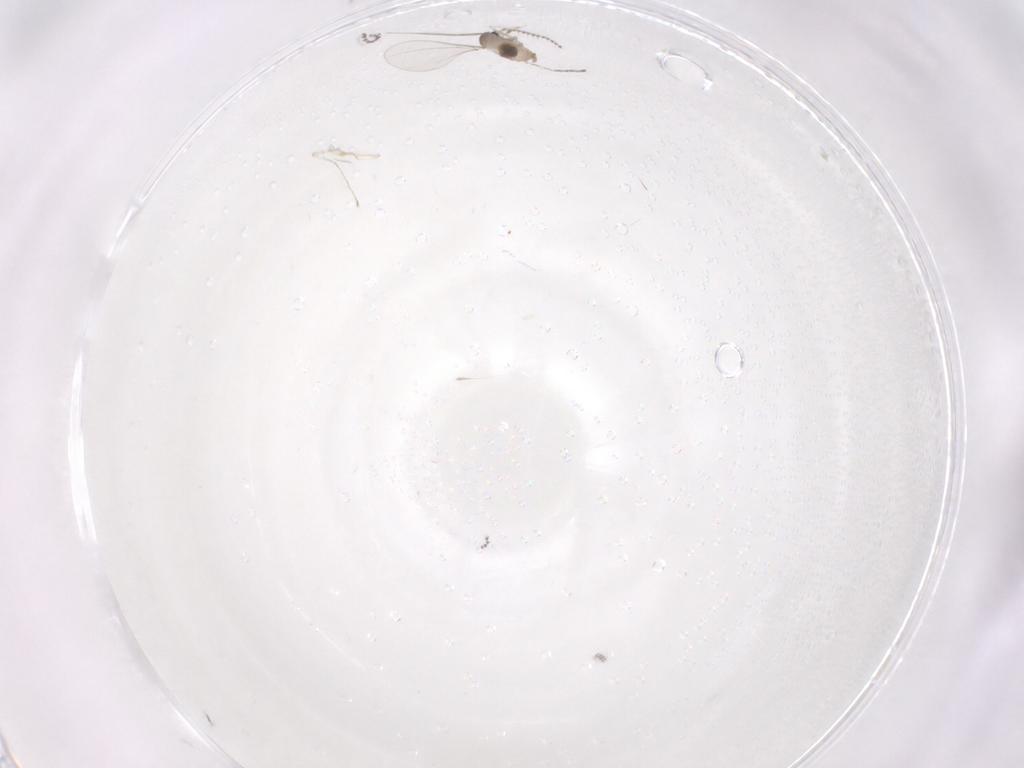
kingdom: Animalia
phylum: Arthropoda
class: Insecta
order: Diptera
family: Cecidomyiidae
